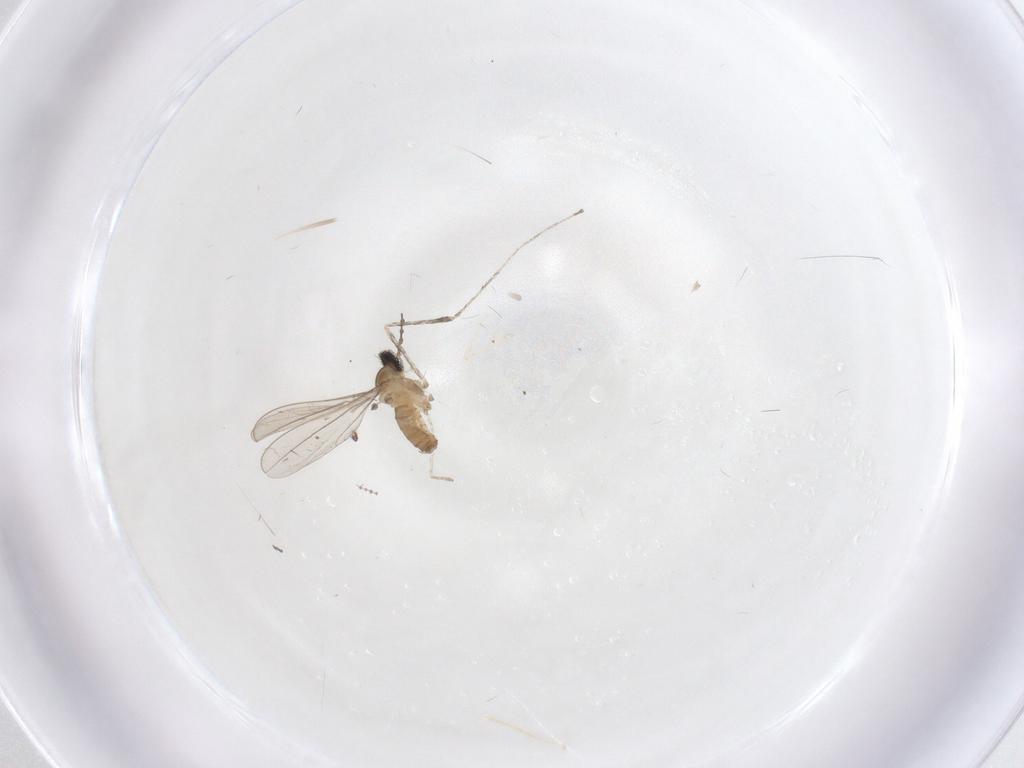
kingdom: Animalia
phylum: Arthropoda
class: Insecta
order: Diptera
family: Cecidomyiidae
